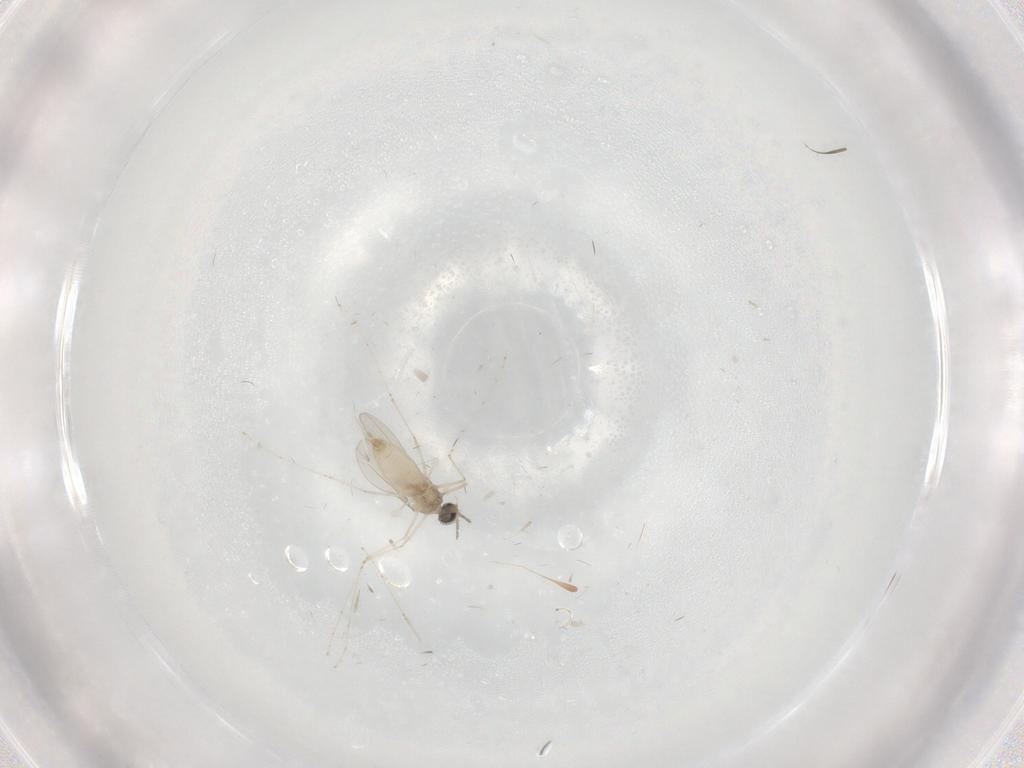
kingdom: Animalia
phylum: Arthropoda
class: Insecta
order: Diptera
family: Cecidomyiidae
